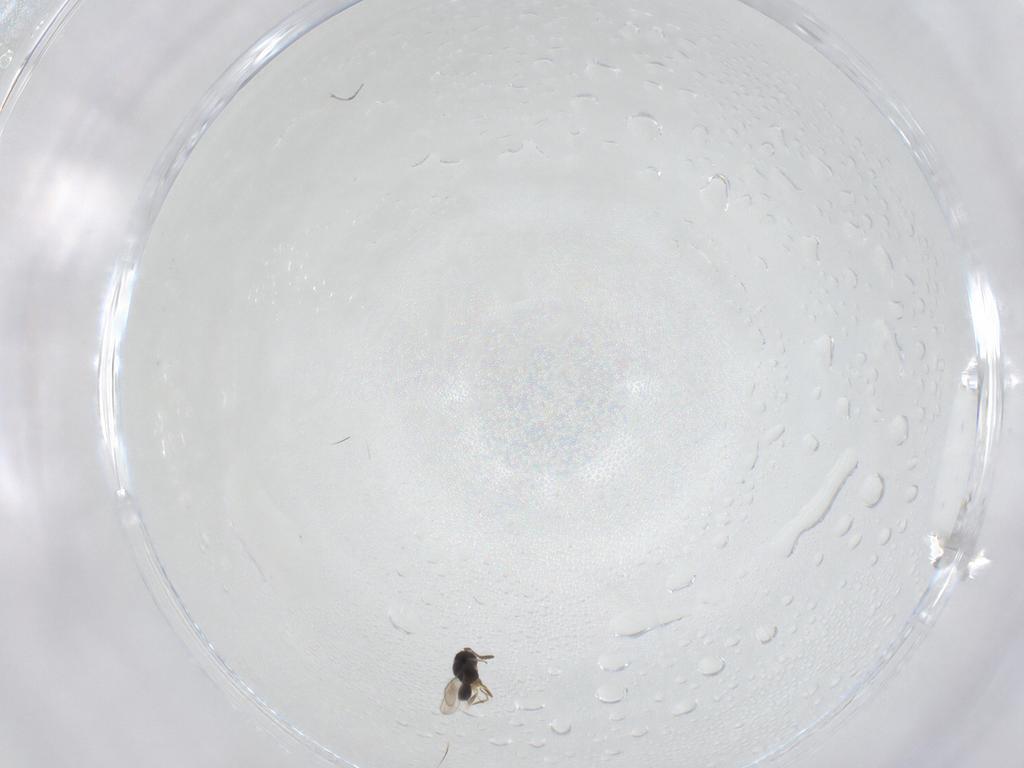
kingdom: Animalia
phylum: Arthropoda
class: Insecta
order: Hymenoptera
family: Scelionidae
